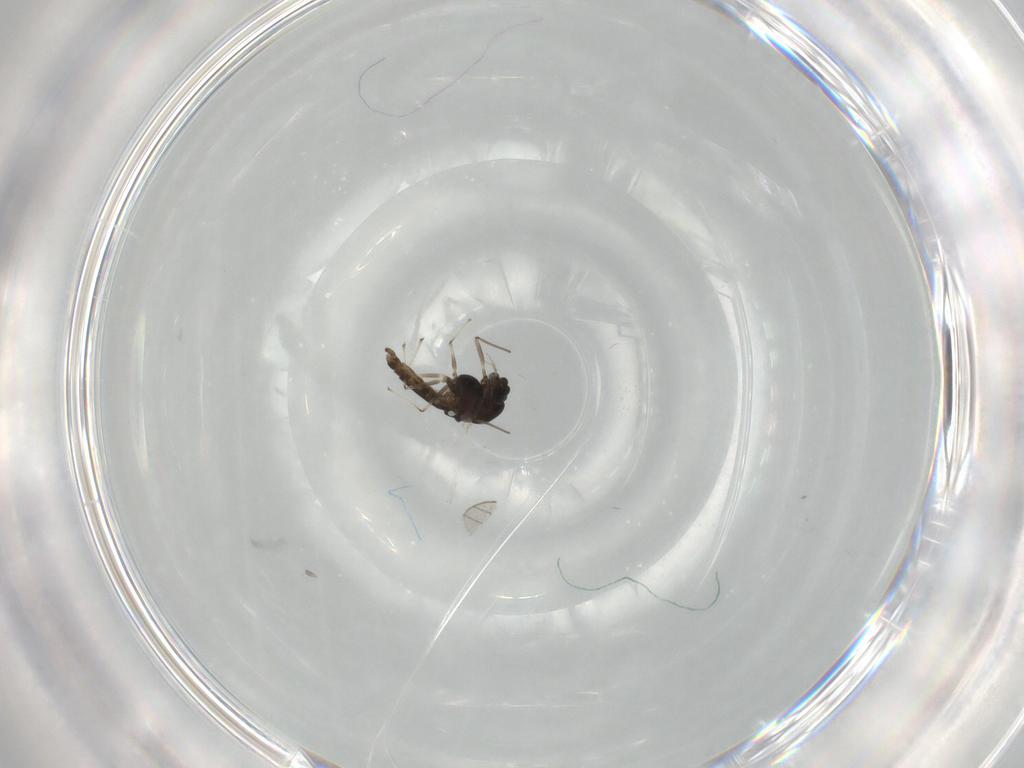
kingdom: Animalia
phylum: Arthropoda
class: Insecta
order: Diptera
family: Chironomidae
